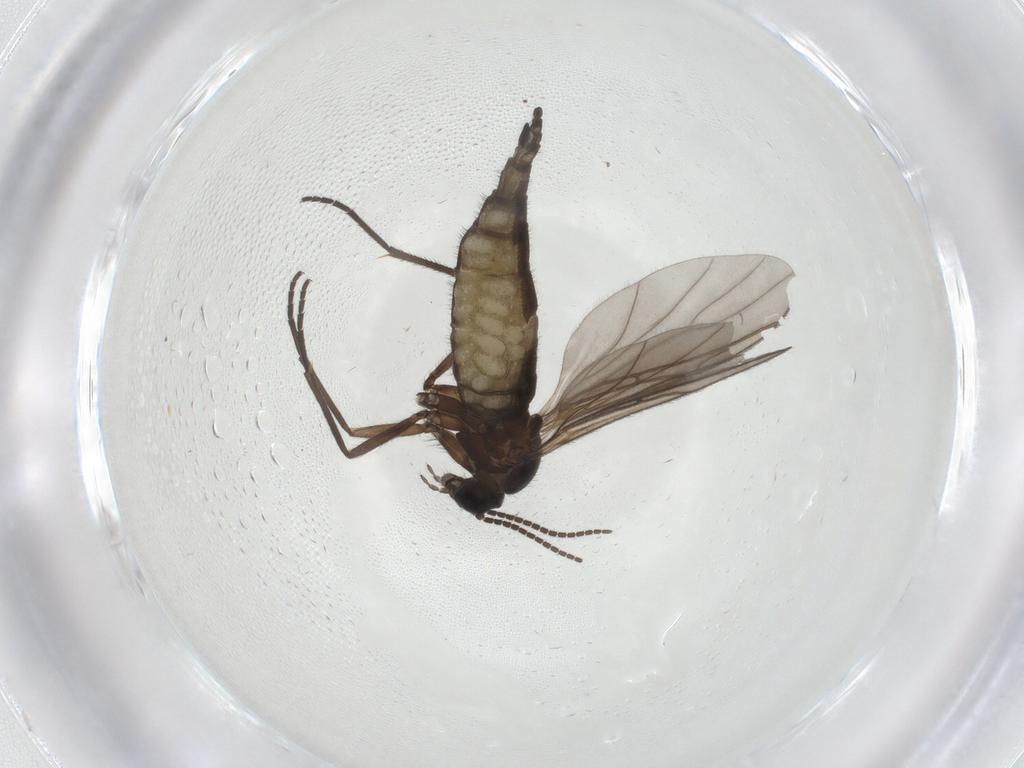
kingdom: Animalia
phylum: Arthropoda
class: Insecta
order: Diptera
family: Sciaridae
